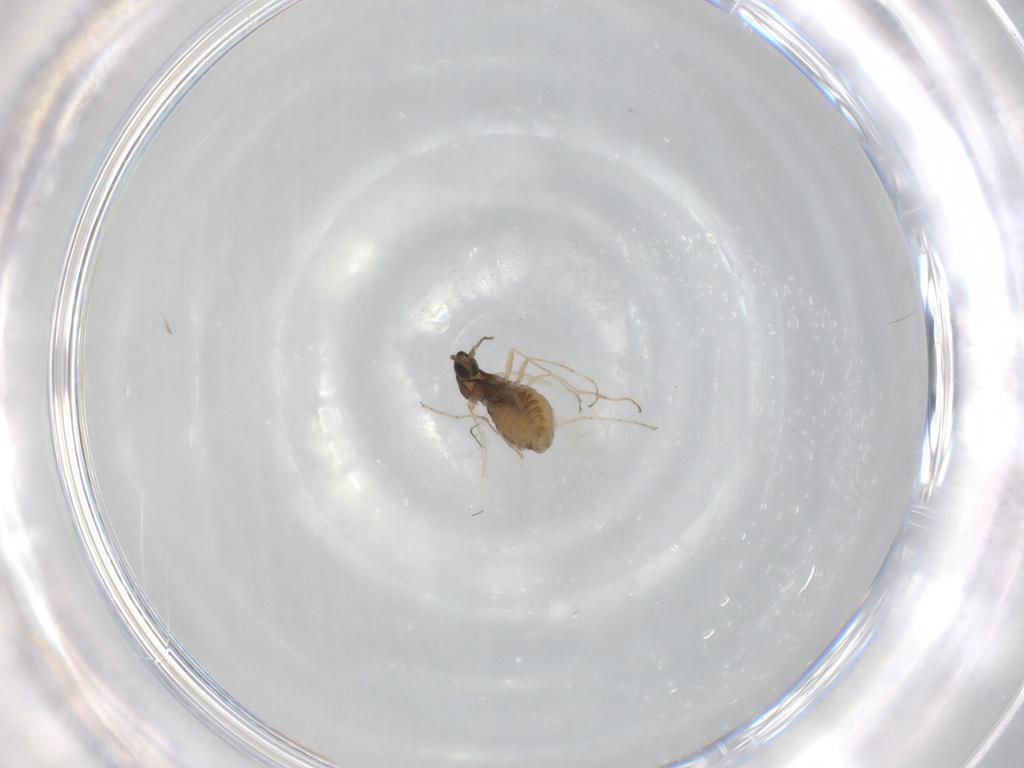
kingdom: Animalia
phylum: Arthropoda
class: Insecta
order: Diptera
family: Cecidomyiidae
